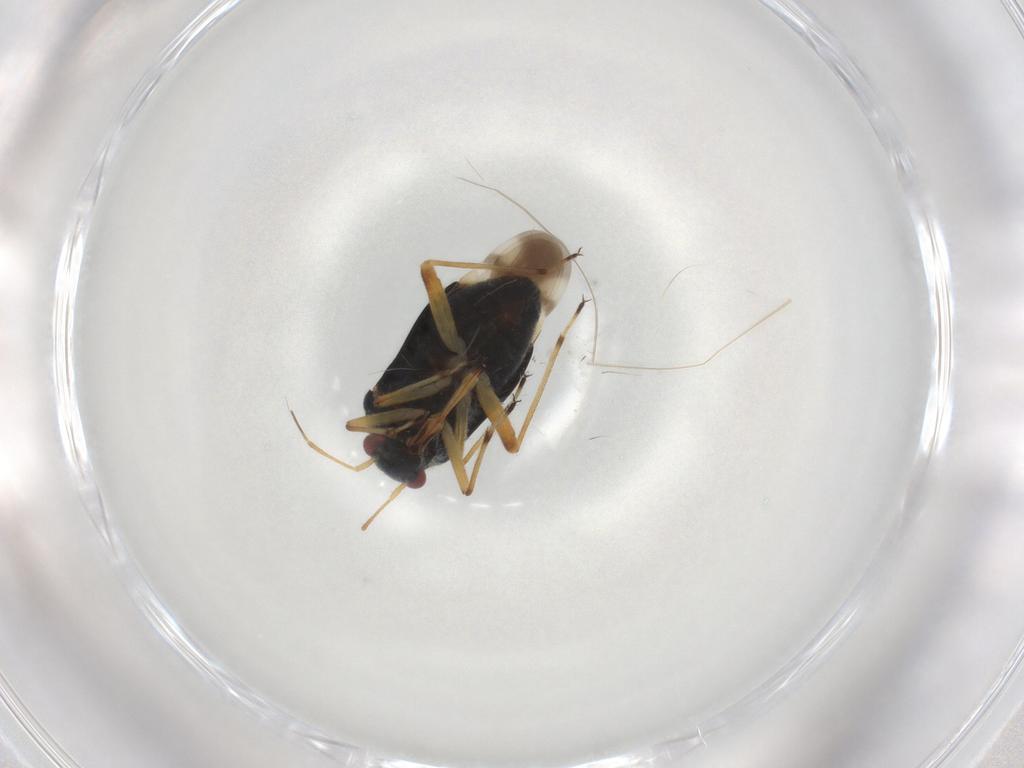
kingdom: Animalia
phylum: Arthropoda
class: Insecta
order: Hemiptera
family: Miridae
